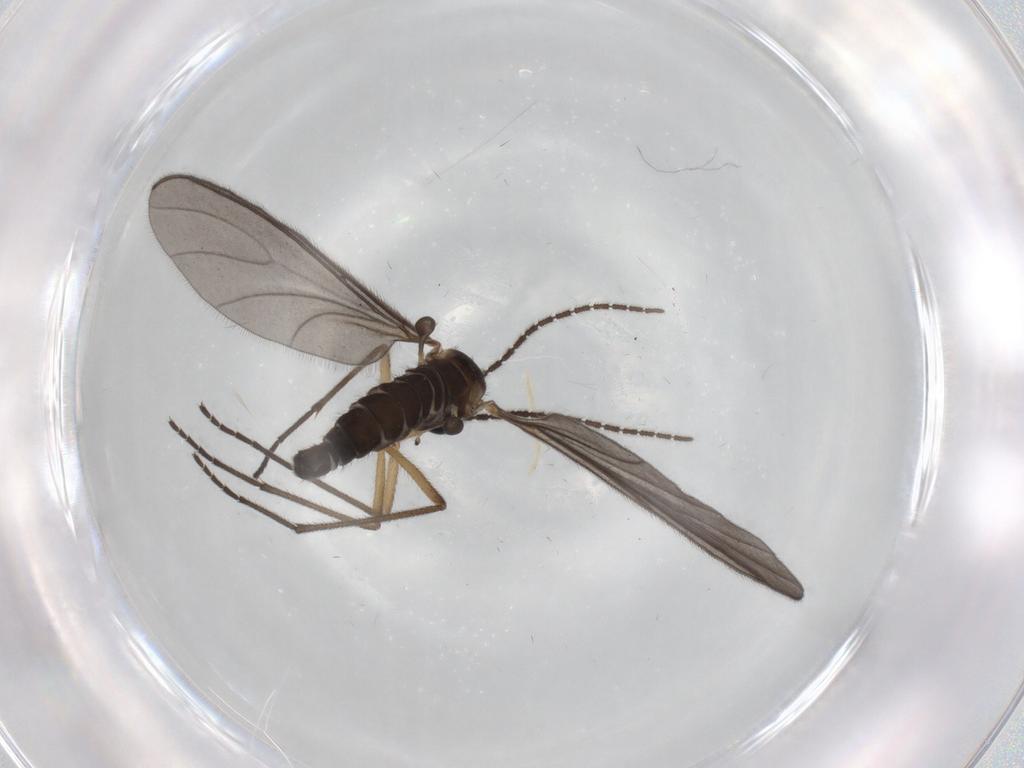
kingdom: Animalia
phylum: Arthropoda
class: Insecta
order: Diptera
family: Sciaridae
